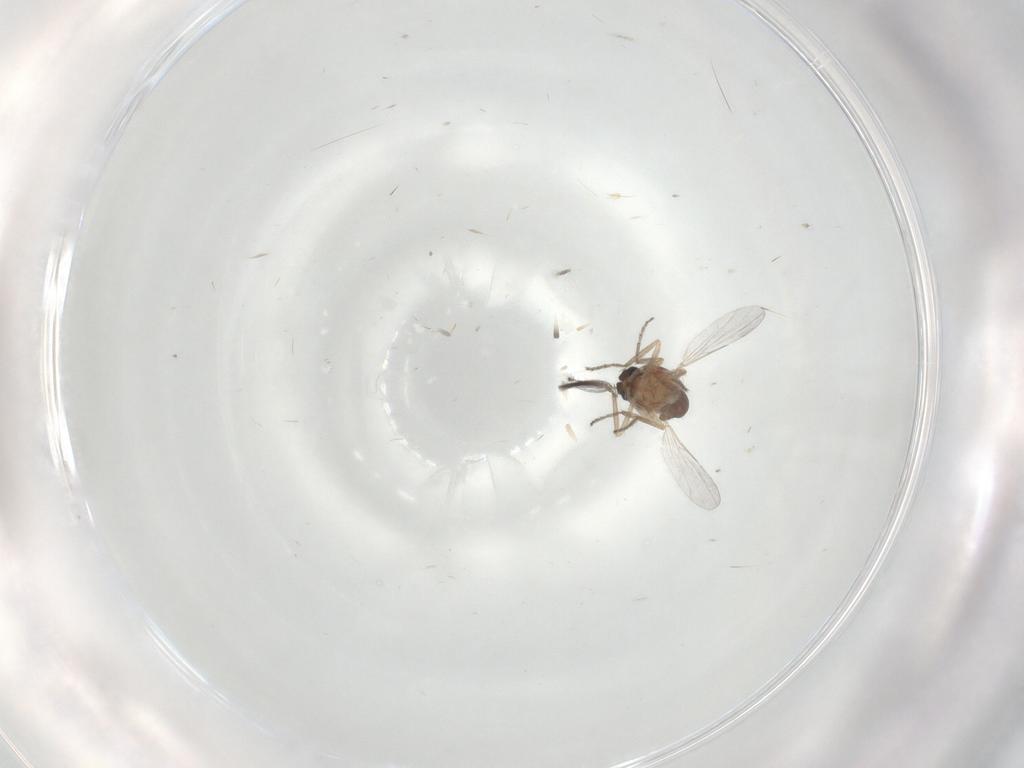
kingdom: Animalia
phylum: Arthropoda
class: Insecta
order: Diptera
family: Ceratopogonidae
